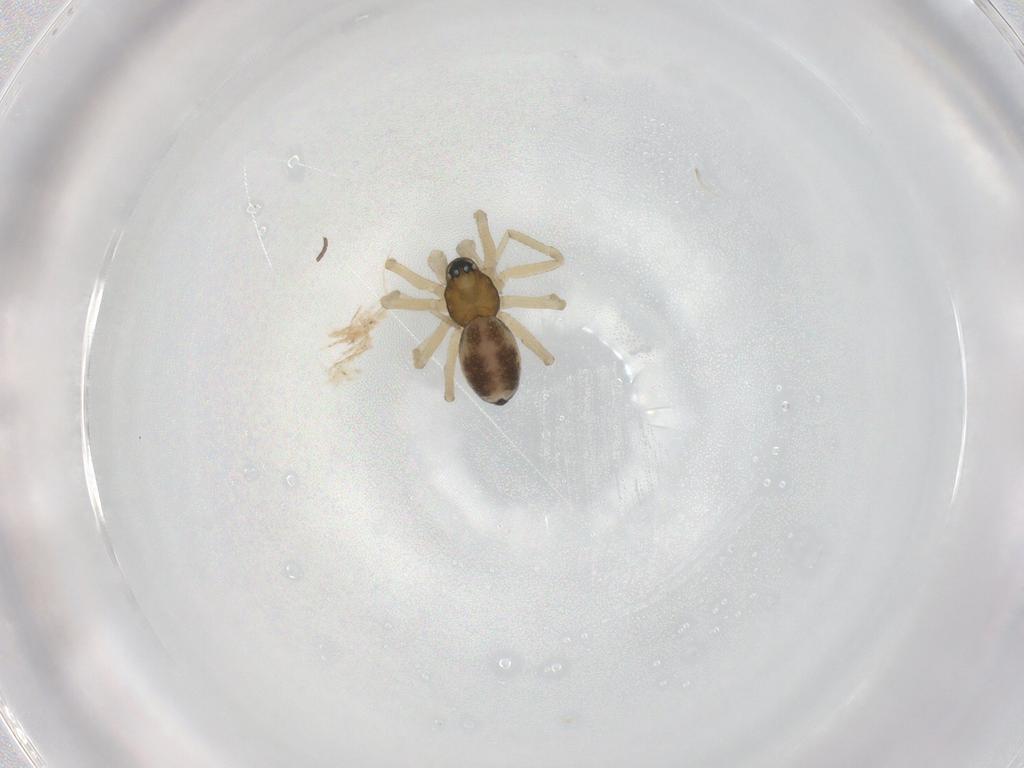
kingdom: Animalia
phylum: Arthropoda
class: Arachnida
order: Araneae
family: Linyphiidae
